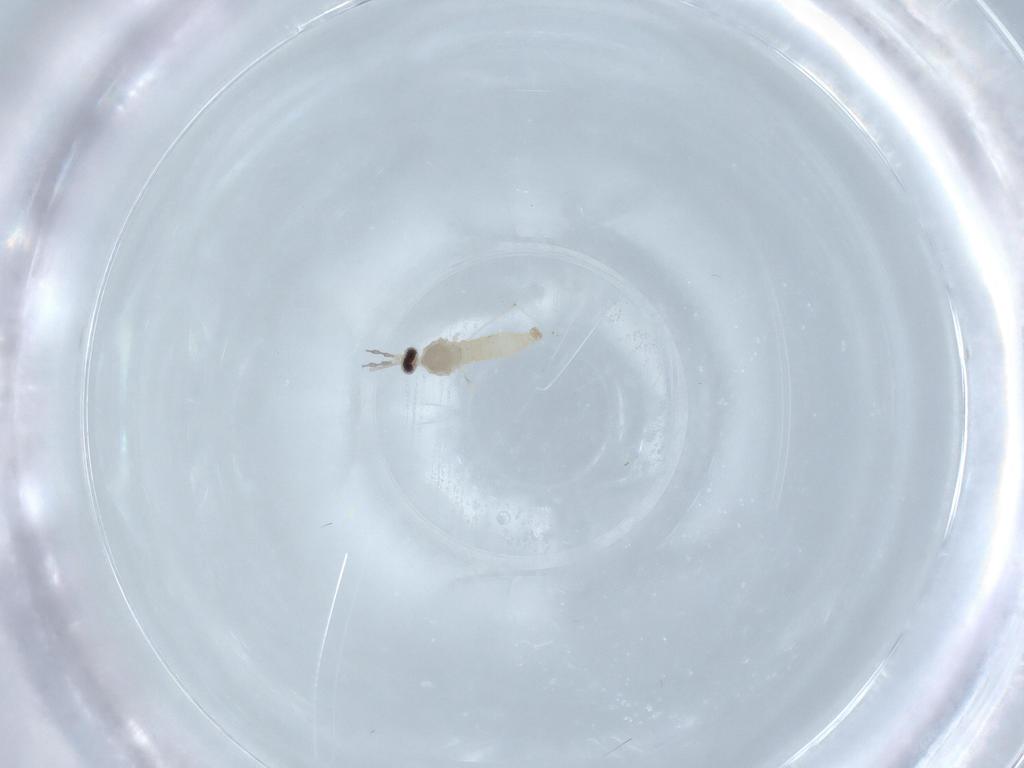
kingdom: Animalia
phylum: Arthropoda
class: Insecta
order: Diptera
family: Cecidomyiidae
